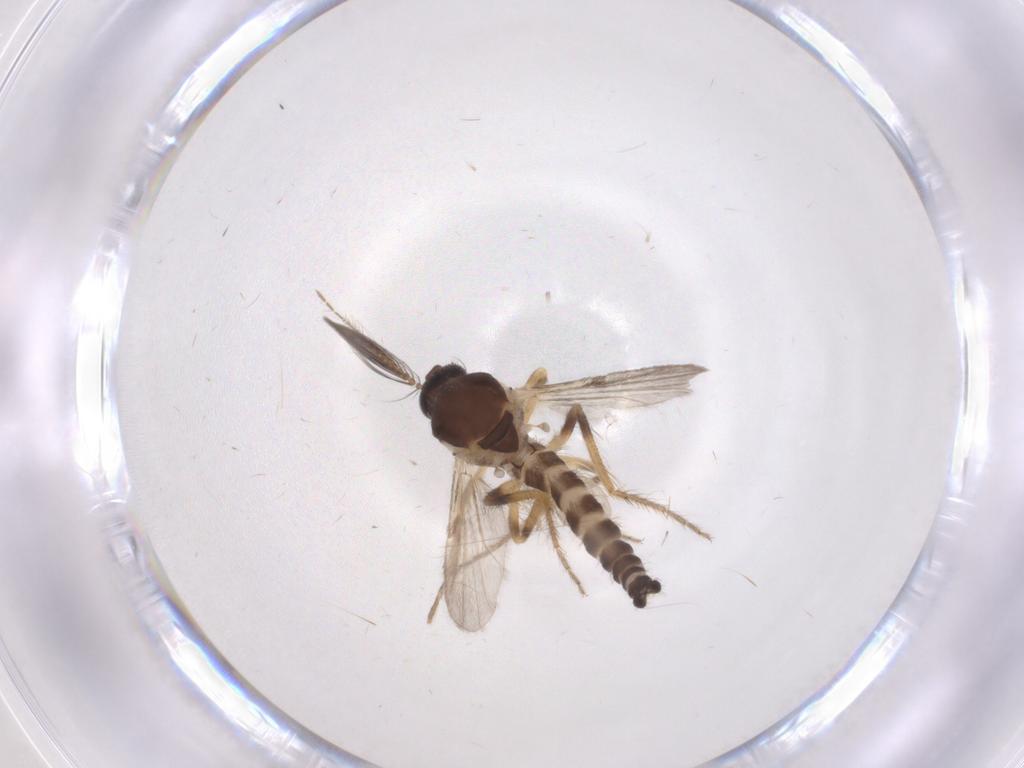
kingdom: Animalia
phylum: Arthropoda
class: Insecta
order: Diptera
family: Ceratopogonidae
